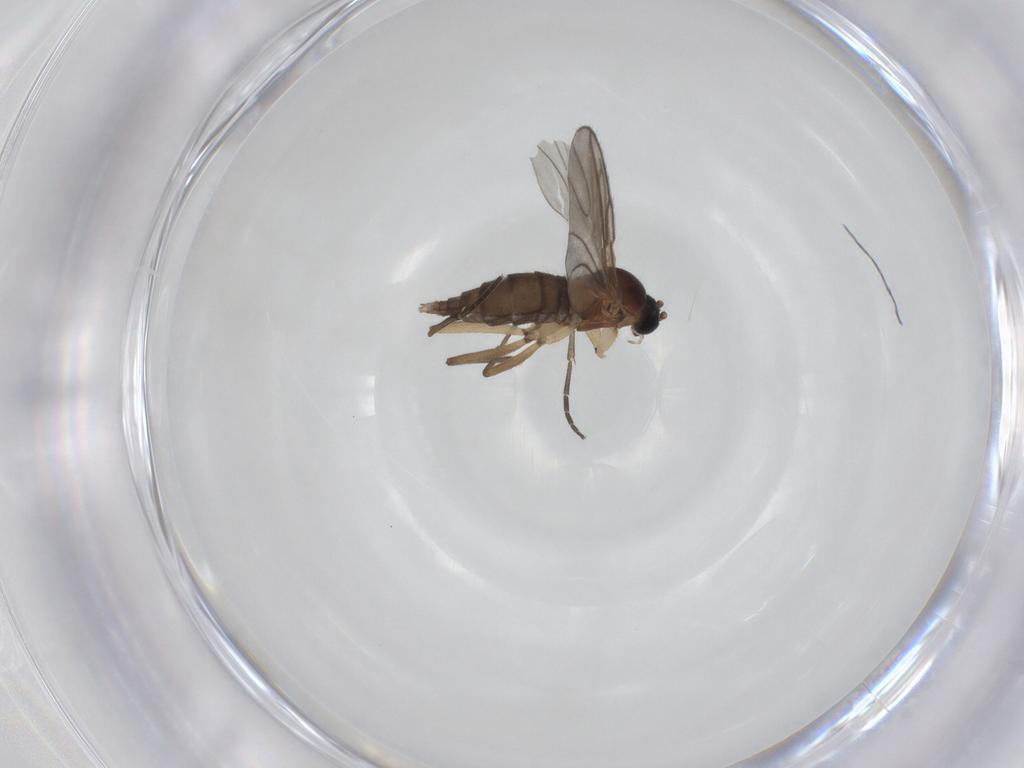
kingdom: Animalia
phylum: Arthropoda
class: Insecta
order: Diptera
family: Sciaridae
